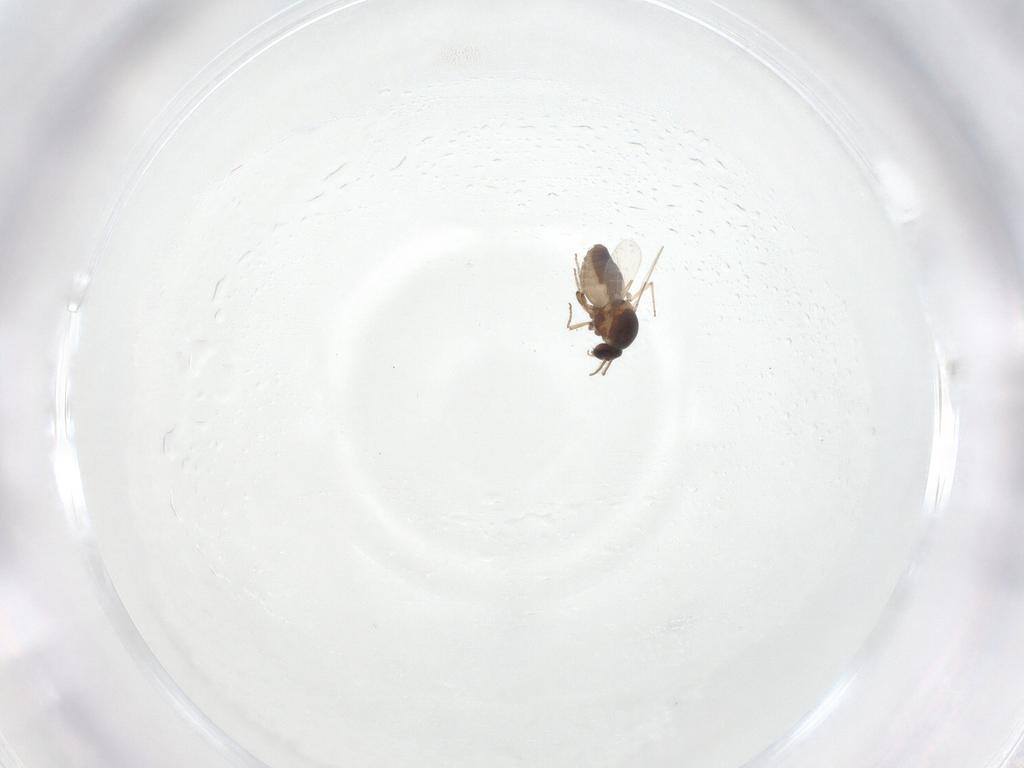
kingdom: Animalia
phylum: Arthropoda
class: Insecta
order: Diptera
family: Ceratopogonidae
